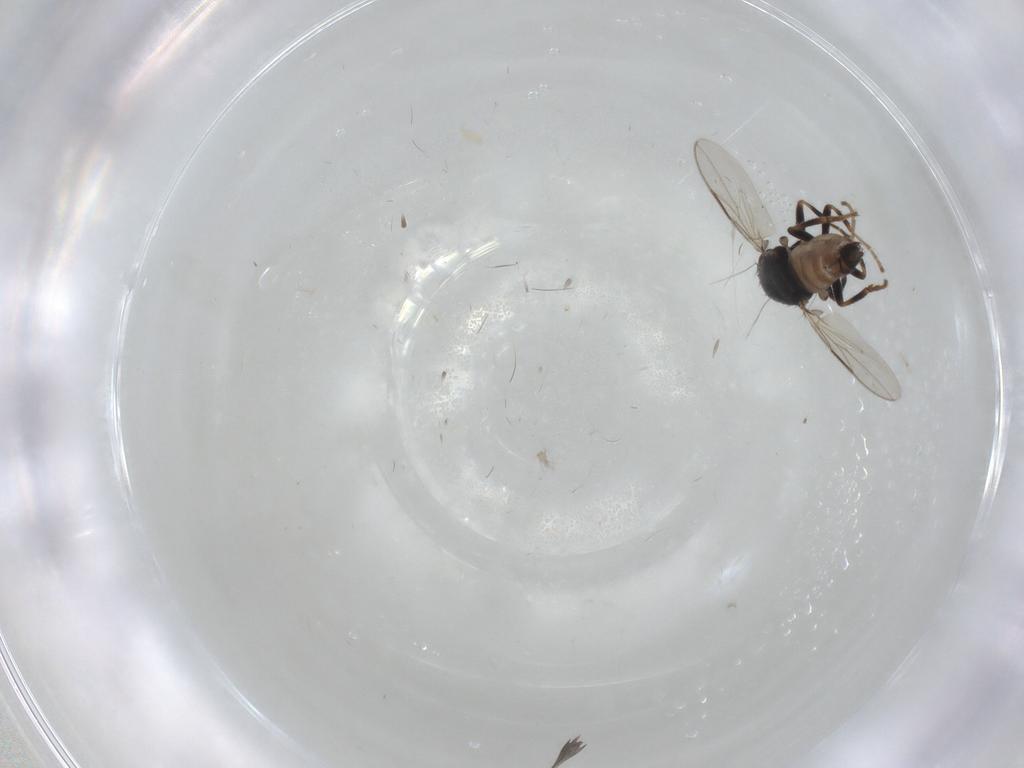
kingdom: Animalia
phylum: Arthropoda
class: Insecta
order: Diptera
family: Sphaeroceridae
